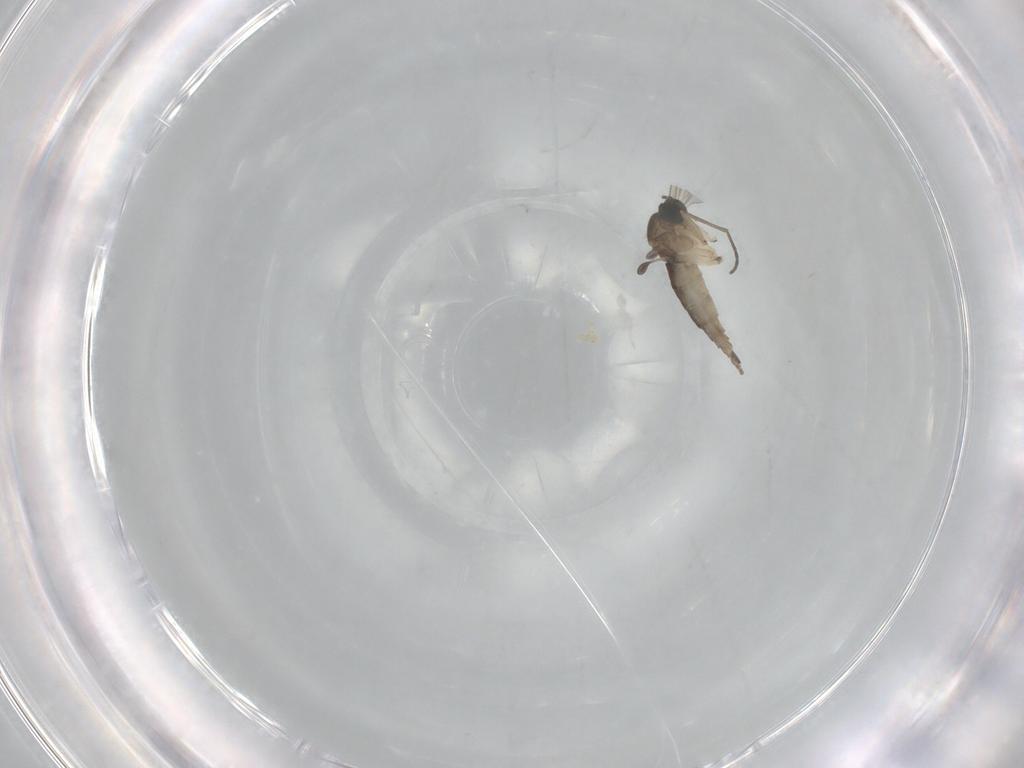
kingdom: Animalia
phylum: Arthropoda
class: Insecta
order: Diptera
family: Sciaridae
